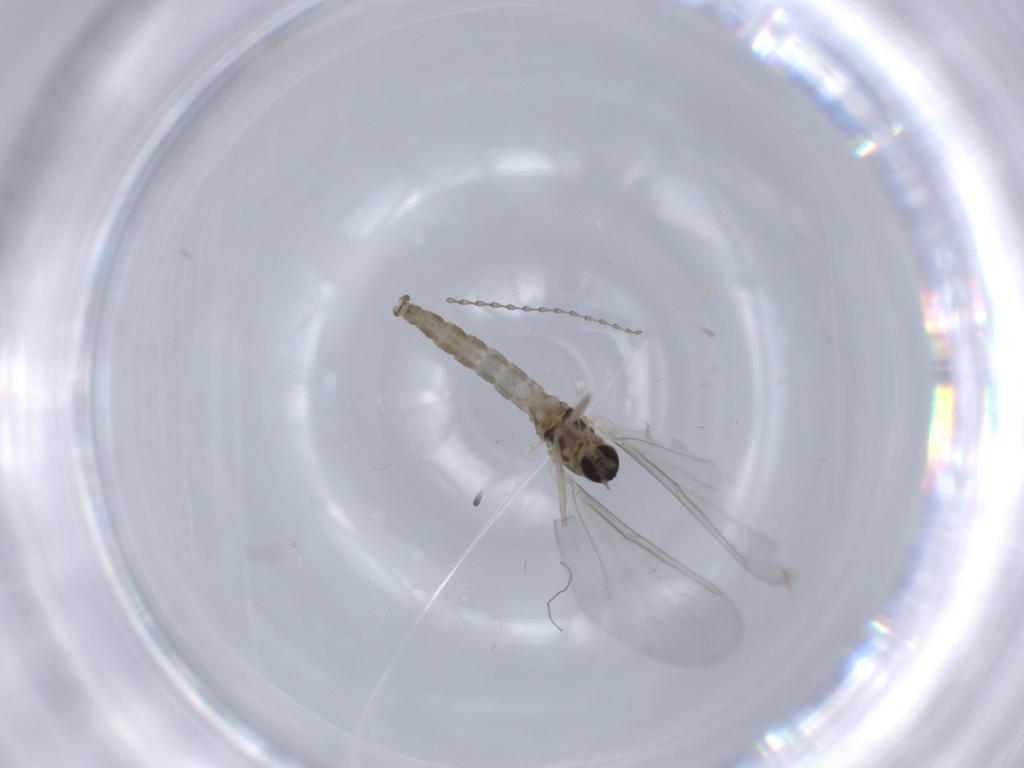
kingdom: Animalia
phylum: Arthropoda
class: Insecta
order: Diptera
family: Cecidomyiidae
